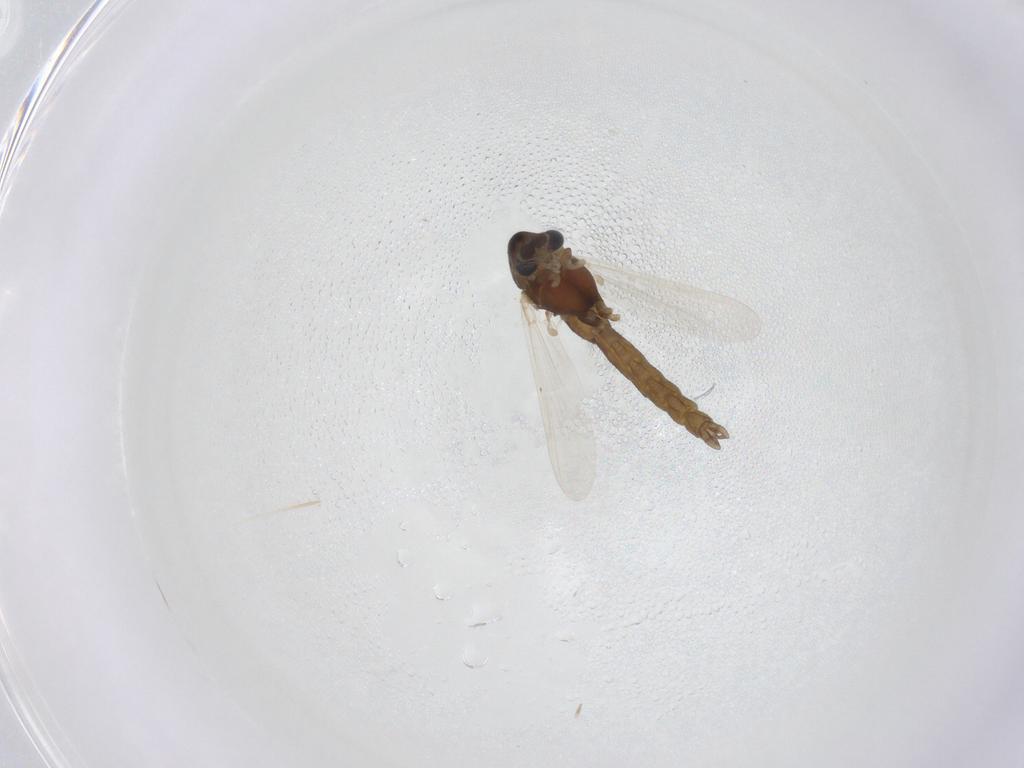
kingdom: Animalia
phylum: Arthropoda
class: Insecta
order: Diptera
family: Chironomidae
